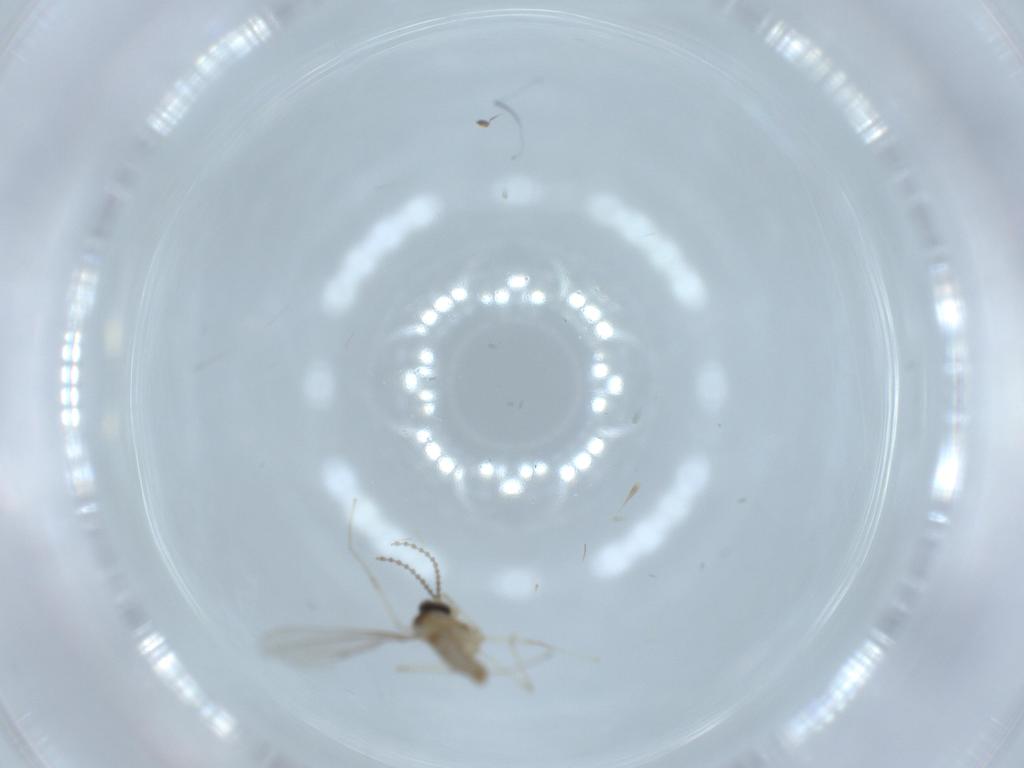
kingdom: Animalia
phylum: Arthropoda
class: Insecta
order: Diptera
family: Cecidomyiidae
